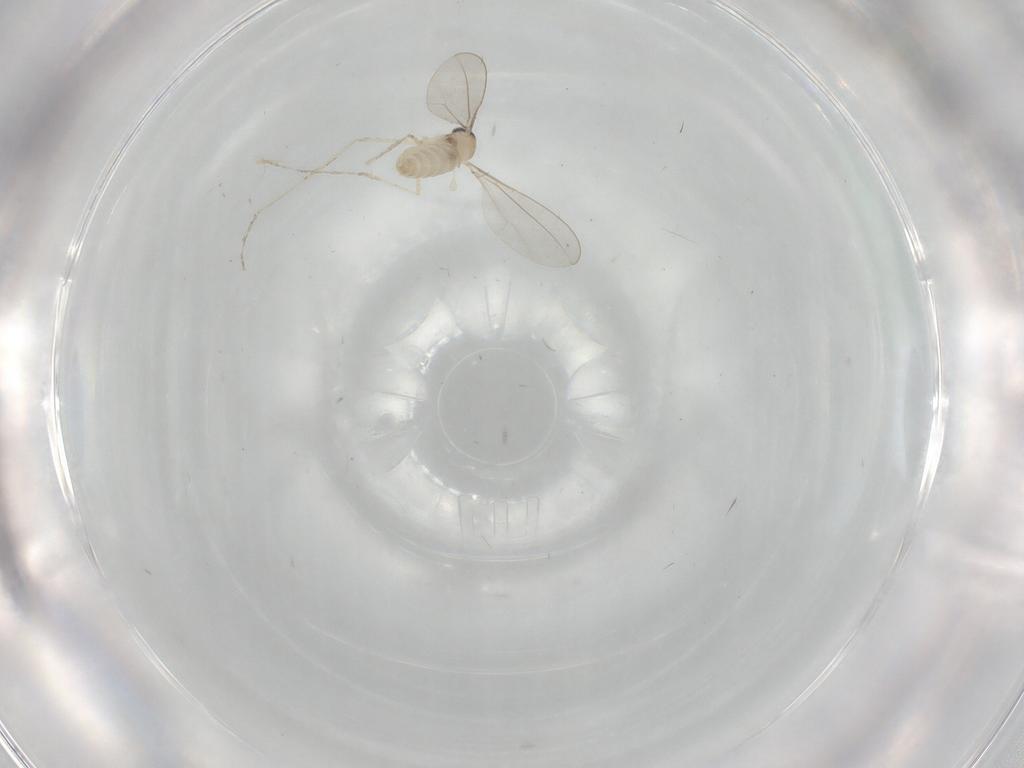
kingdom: Animalia
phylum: Arthropoda
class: Insecta
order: Diptera
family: Cecidomyiidae
